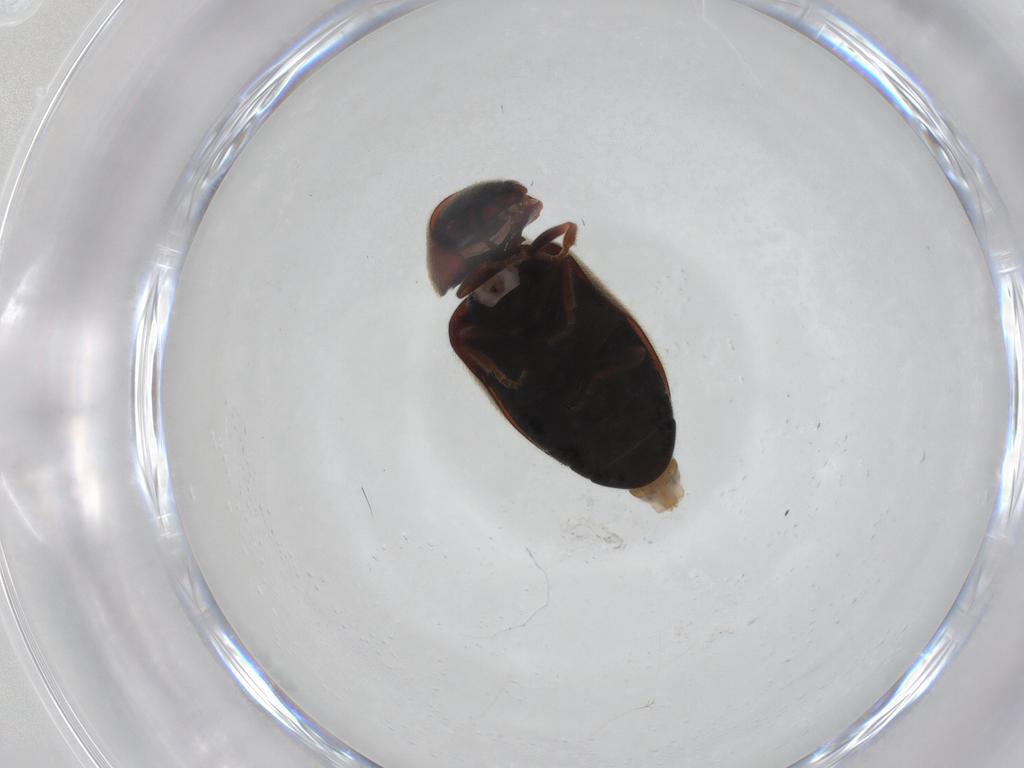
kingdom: Animalia
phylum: Arthropoda
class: Insecta
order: Coleoptera
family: Ptinidae
